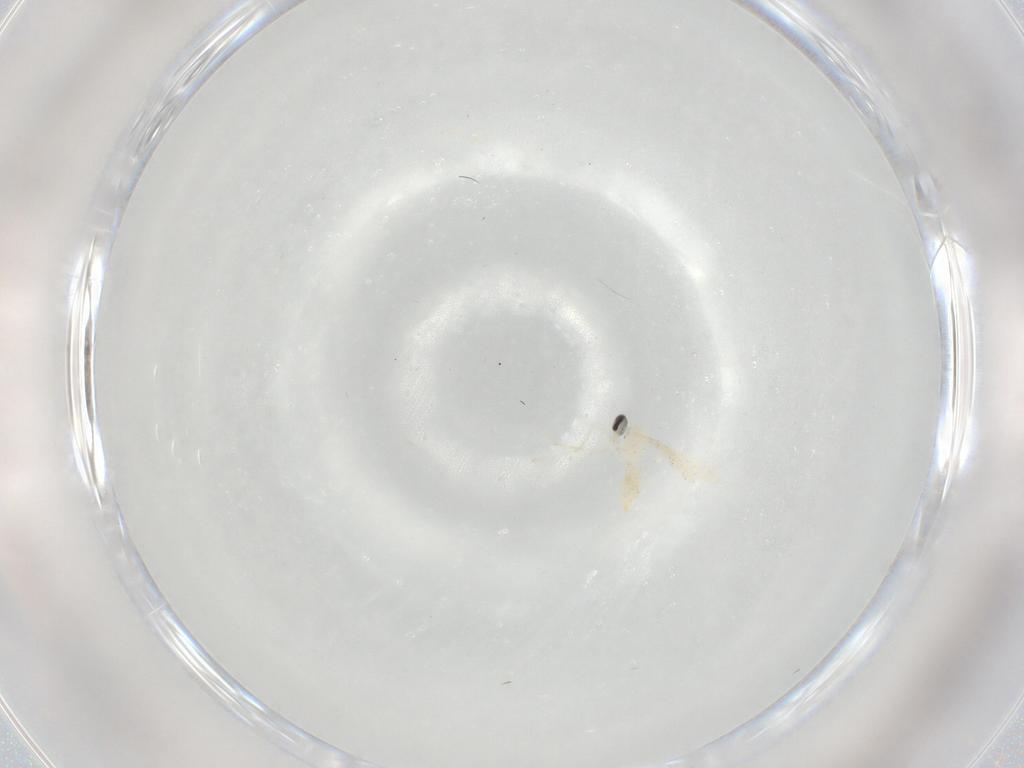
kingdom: Animalia
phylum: Arthropoda
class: Insecta
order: Diptera
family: Cecidomyiidae
